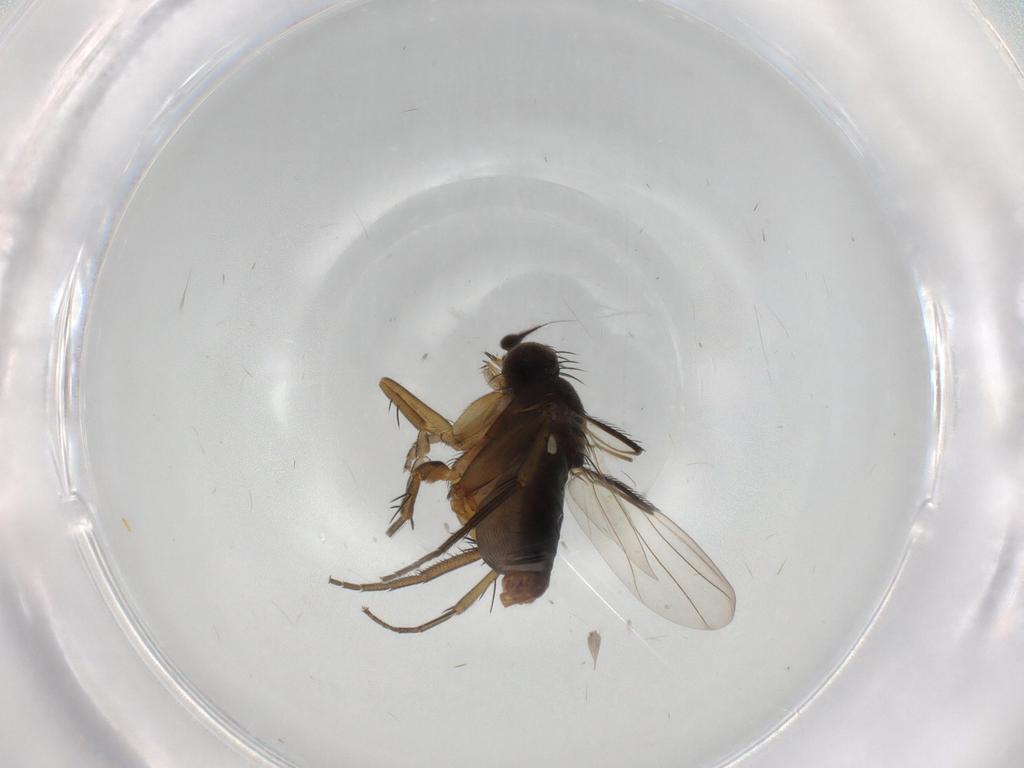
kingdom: Animalia
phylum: Arthropoda
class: Insecta
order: Diptera
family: Phoridae
